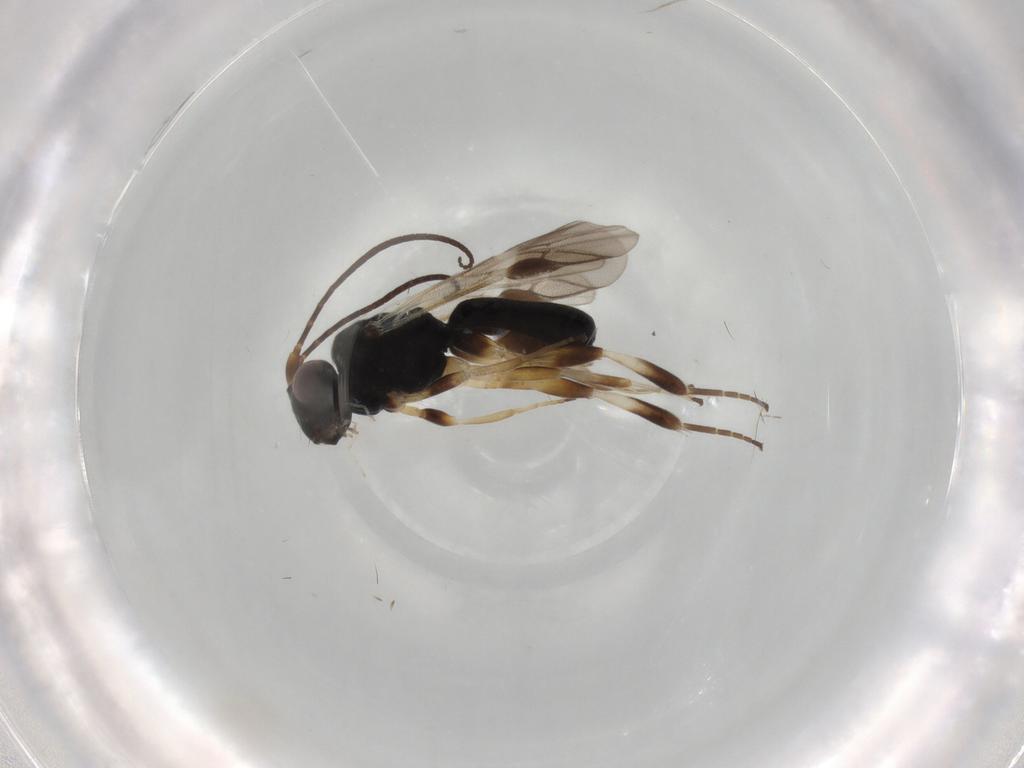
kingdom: Animalia
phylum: Arthropoda
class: Insecta
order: Hymenoptera
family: Braconidae
